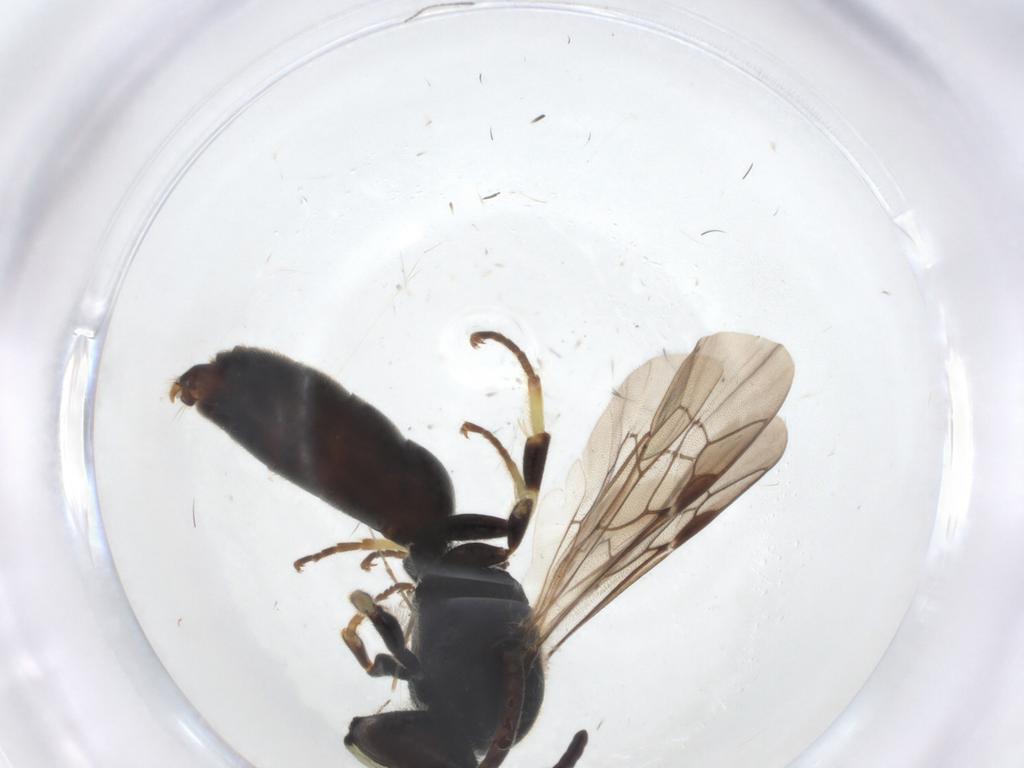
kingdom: Animalia
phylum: Arthropoda
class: Insecta
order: Hymenoptera
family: Colletidae
